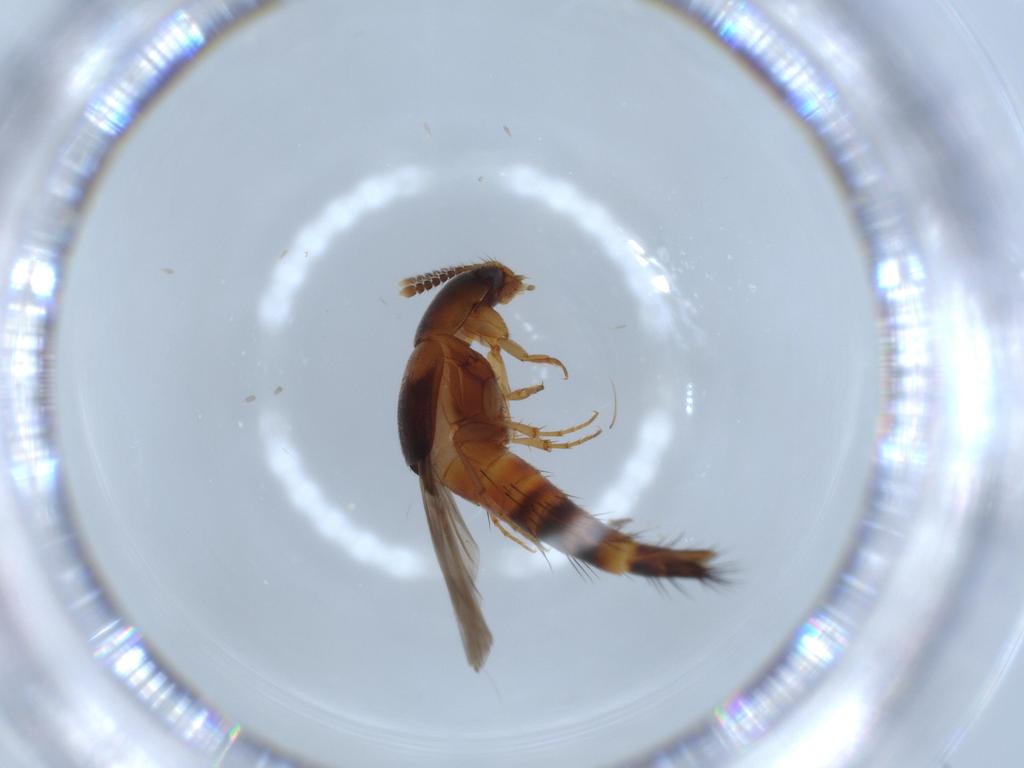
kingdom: Animalia
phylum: Arthropoda
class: Insecta
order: Coleoptera
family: Staphylinidae
